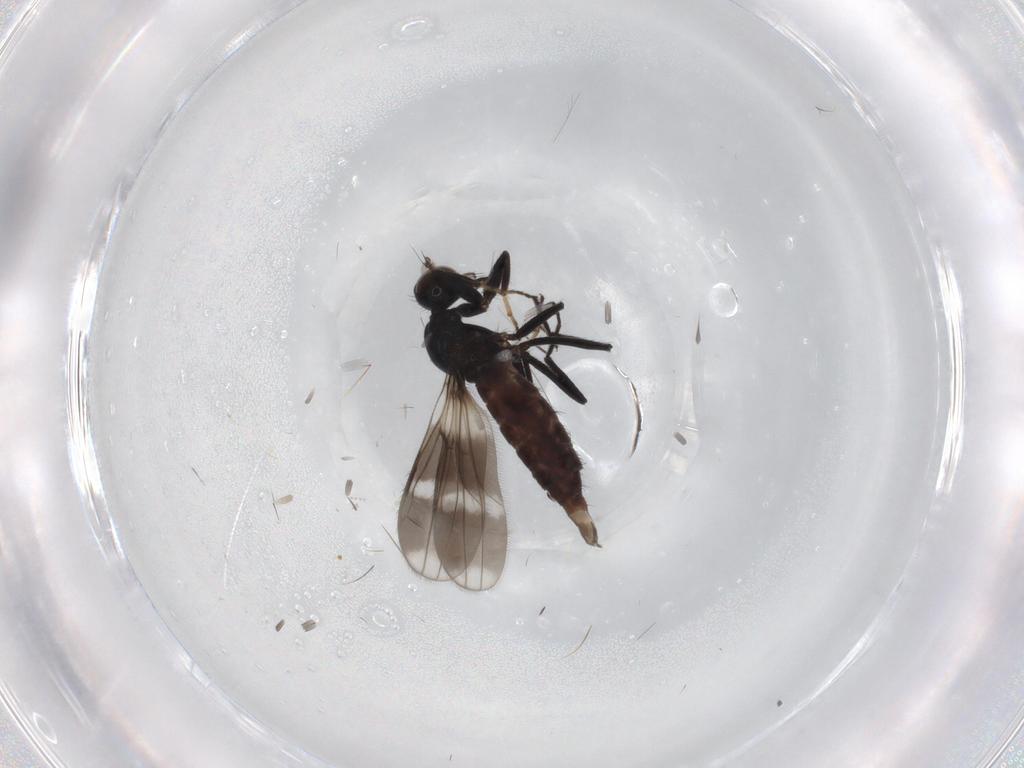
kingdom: Animalia
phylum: Arthropoda
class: Insecta
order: Diptera
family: Hybotidae
